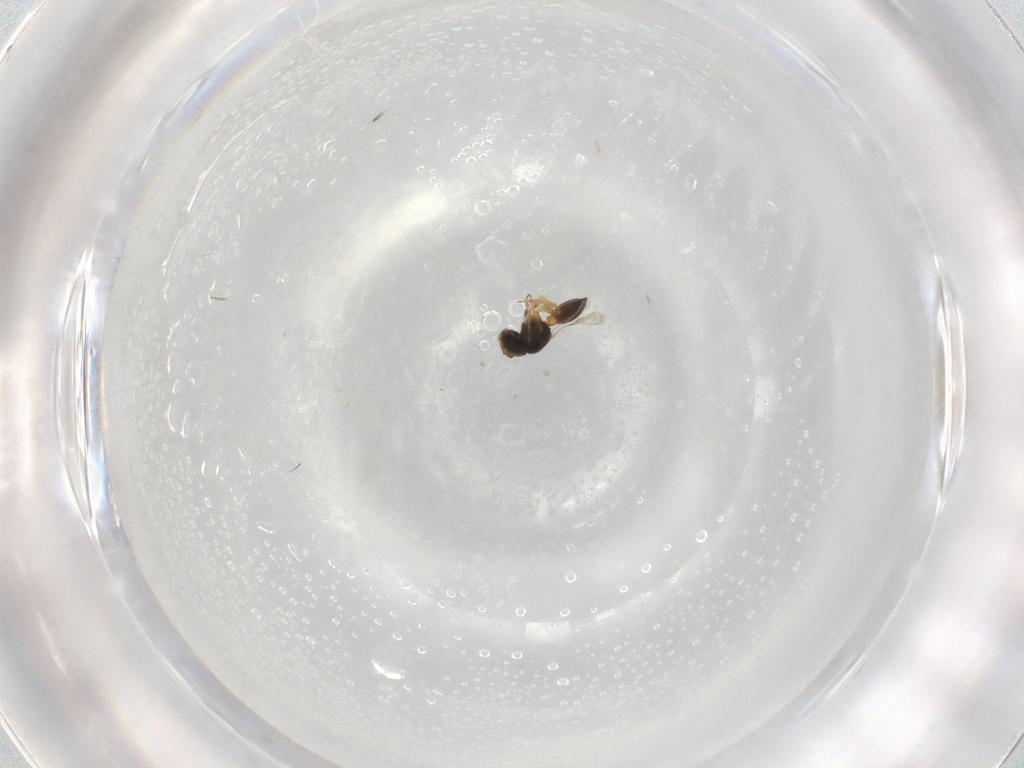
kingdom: Animalia
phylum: Arthropoda
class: Insecta
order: Hymenoptera
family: Scelionidae
